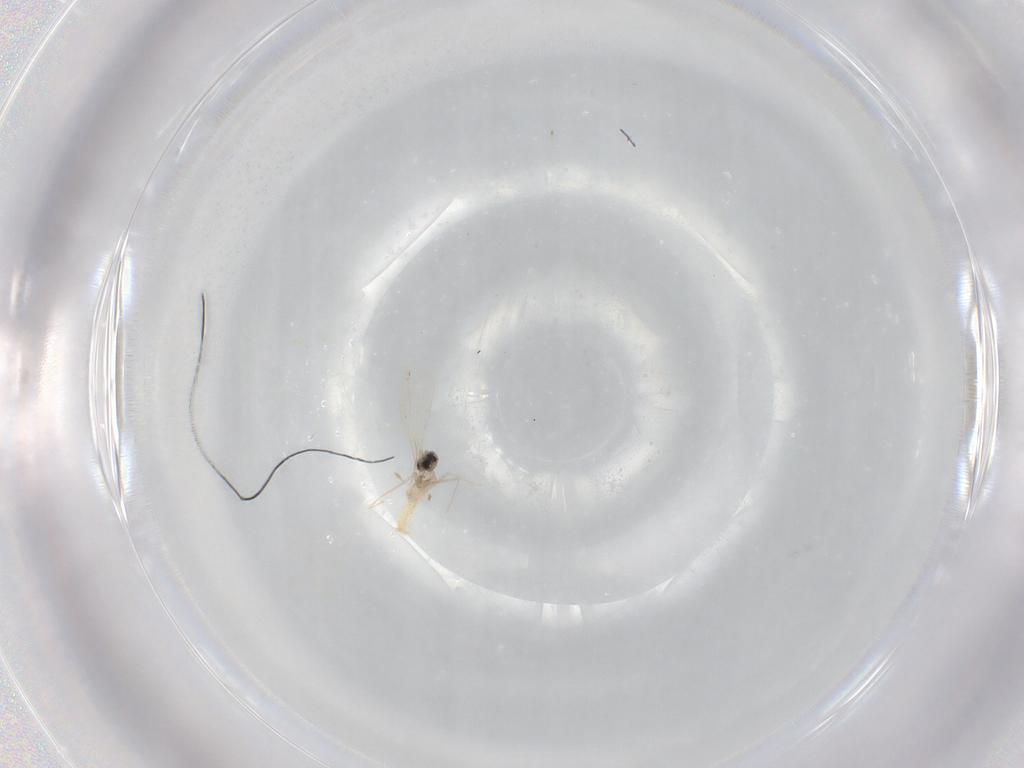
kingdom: Animalia
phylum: Arthropoda
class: Insecta
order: Diptera
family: Cecidomyiidae
